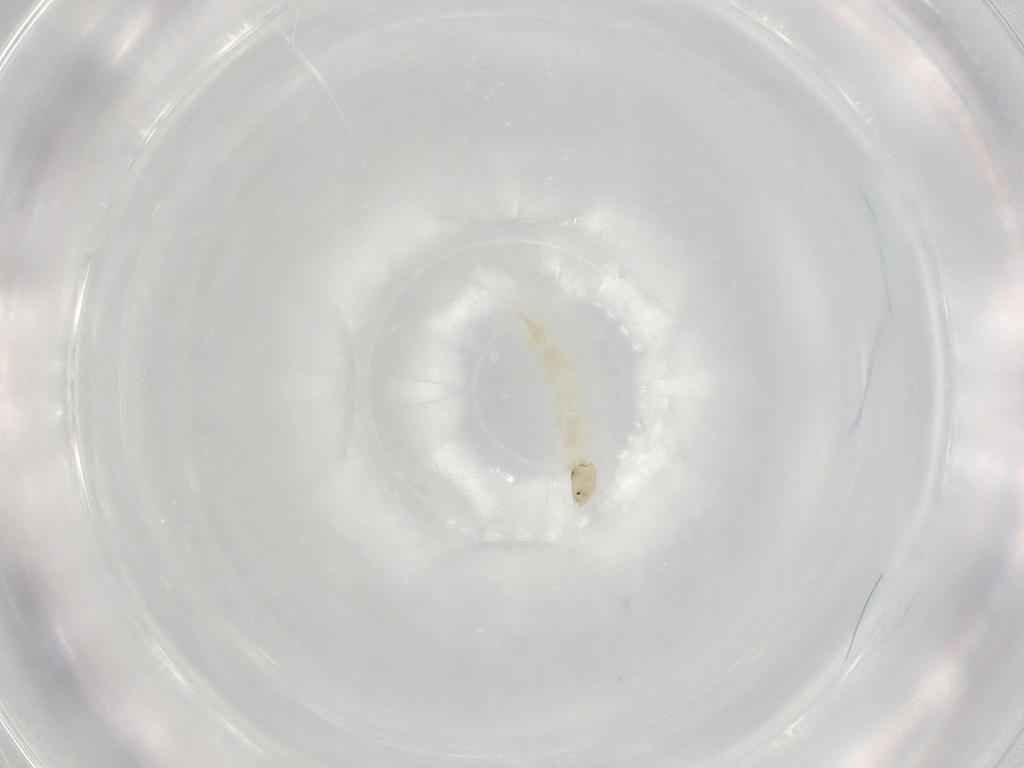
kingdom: Animalia
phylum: Arthropoda
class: Insecta
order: Diptera
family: Chironomidae
